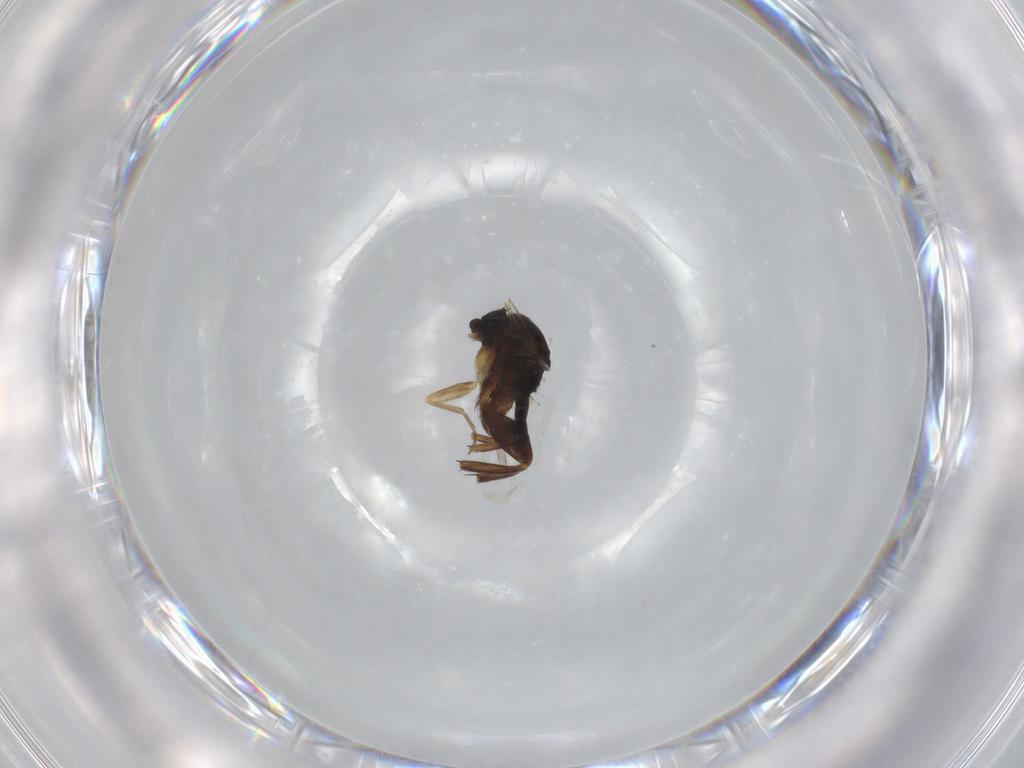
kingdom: Animalia
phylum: Arthropoda
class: Insecta
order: Diptera
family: Phoridae
